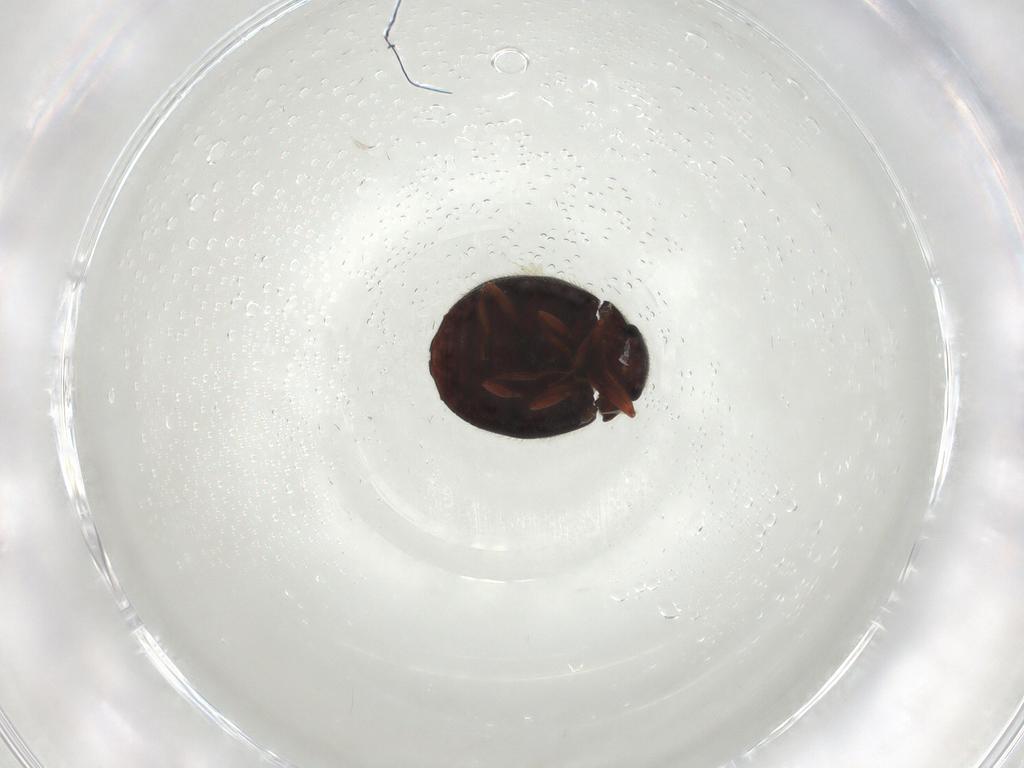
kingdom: Animalia
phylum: Arthropoda
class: Insecta
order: Coleoptera
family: Sphindidae
